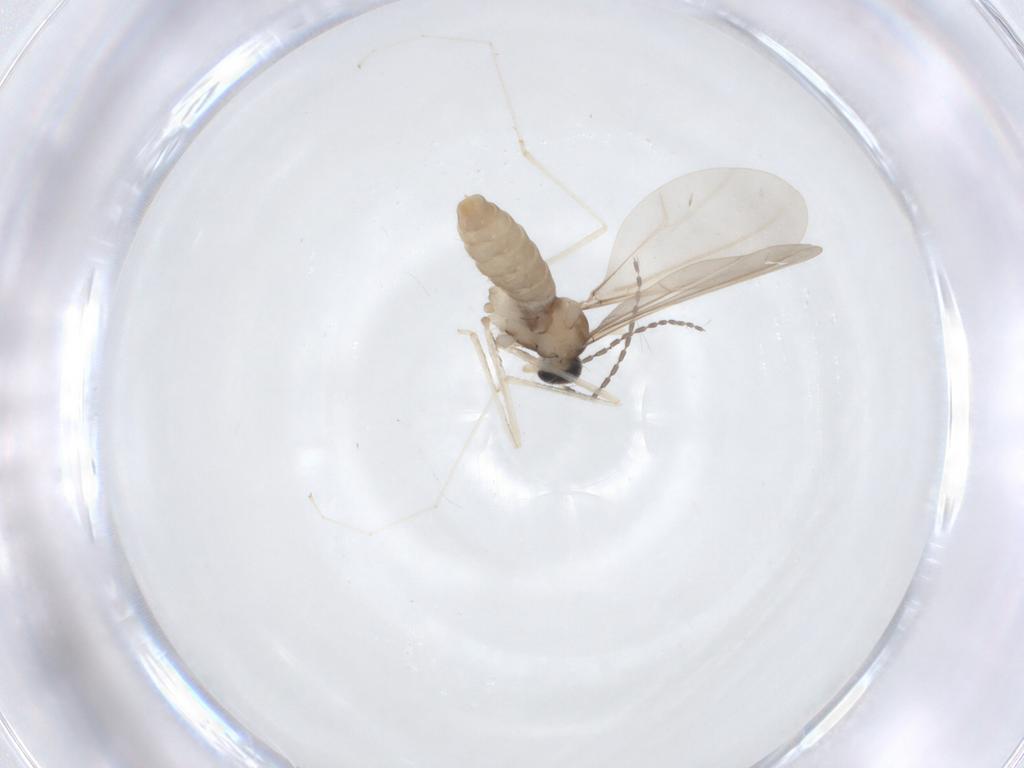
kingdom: Animalia
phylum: Arthropoda
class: Insecta
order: Diptera
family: Cecidomyiidae
